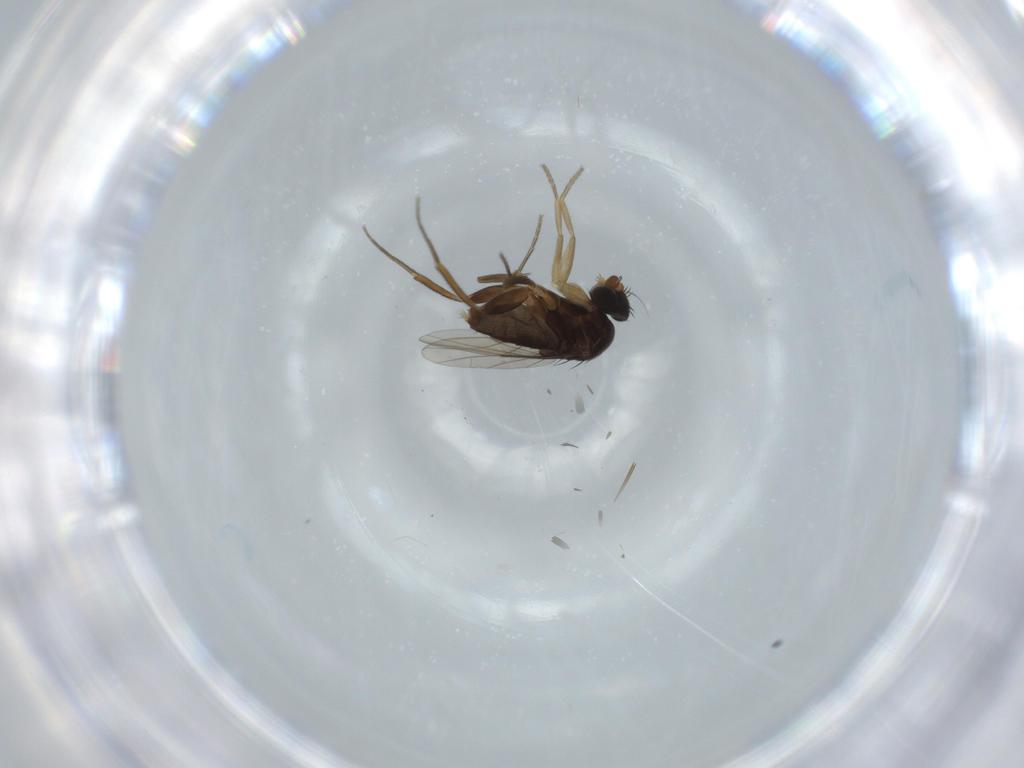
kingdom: Animalia
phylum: Arthropoda
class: Insecta
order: Diptera
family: Phoridae
